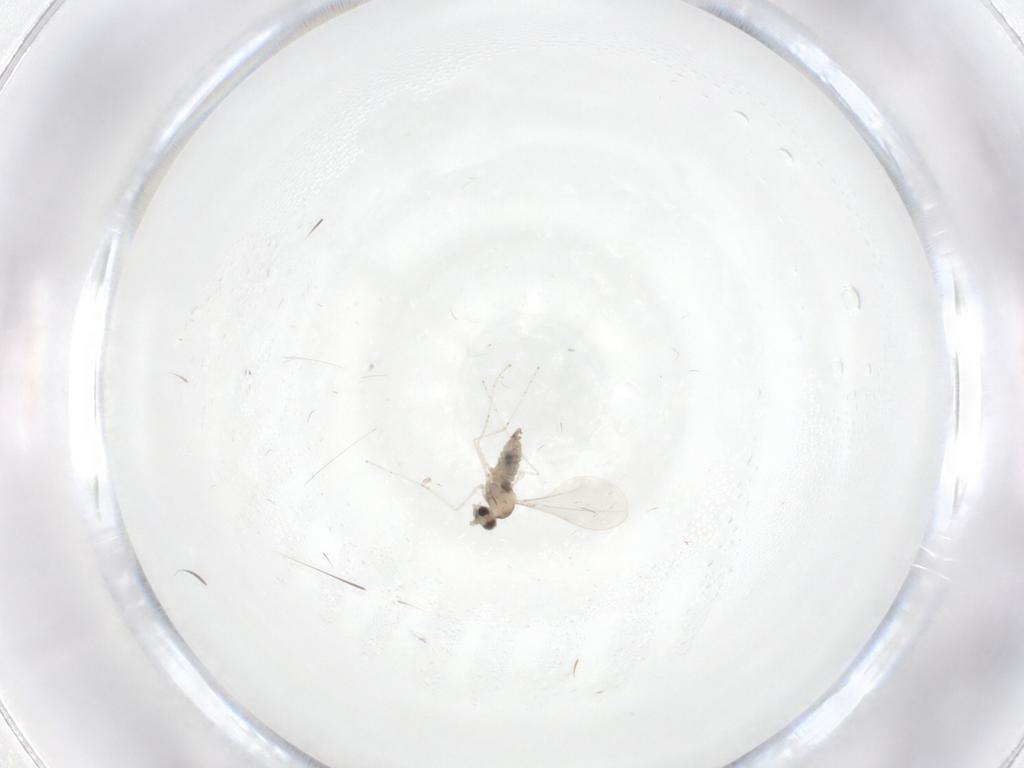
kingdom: Animalia
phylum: Arthropoda
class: Insecta
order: Diptera
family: Cecidomyiidae
